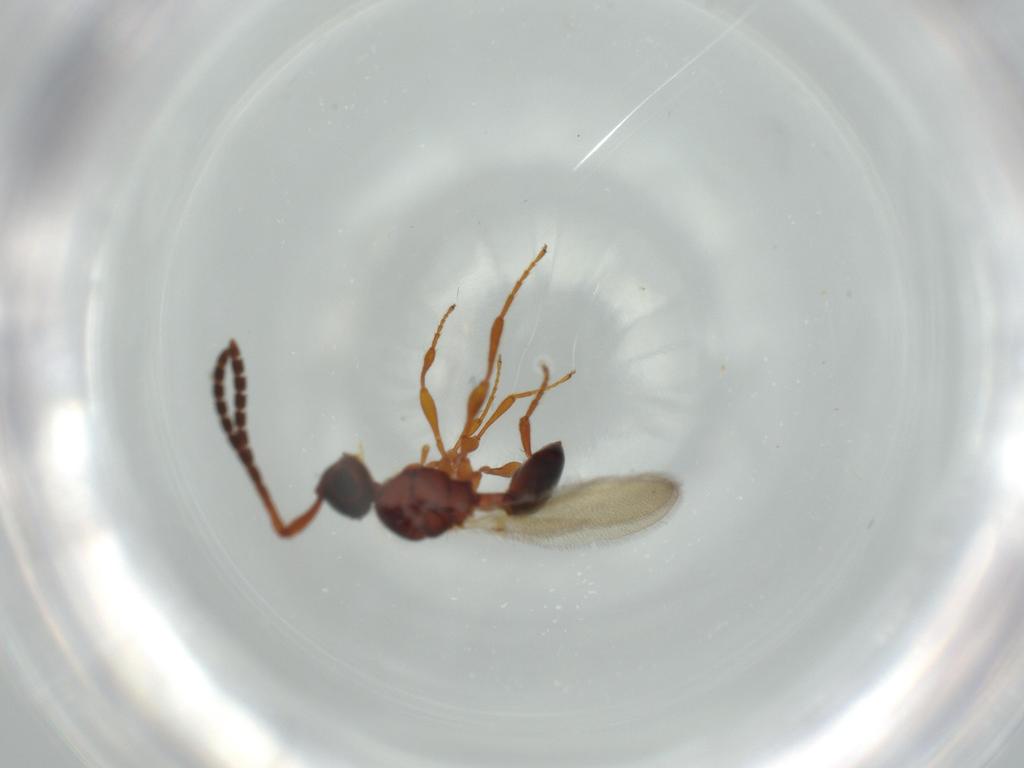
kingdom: Animalia
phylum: Arthropoda
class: Insecta
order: Hymenoptera
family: Diapriidae
